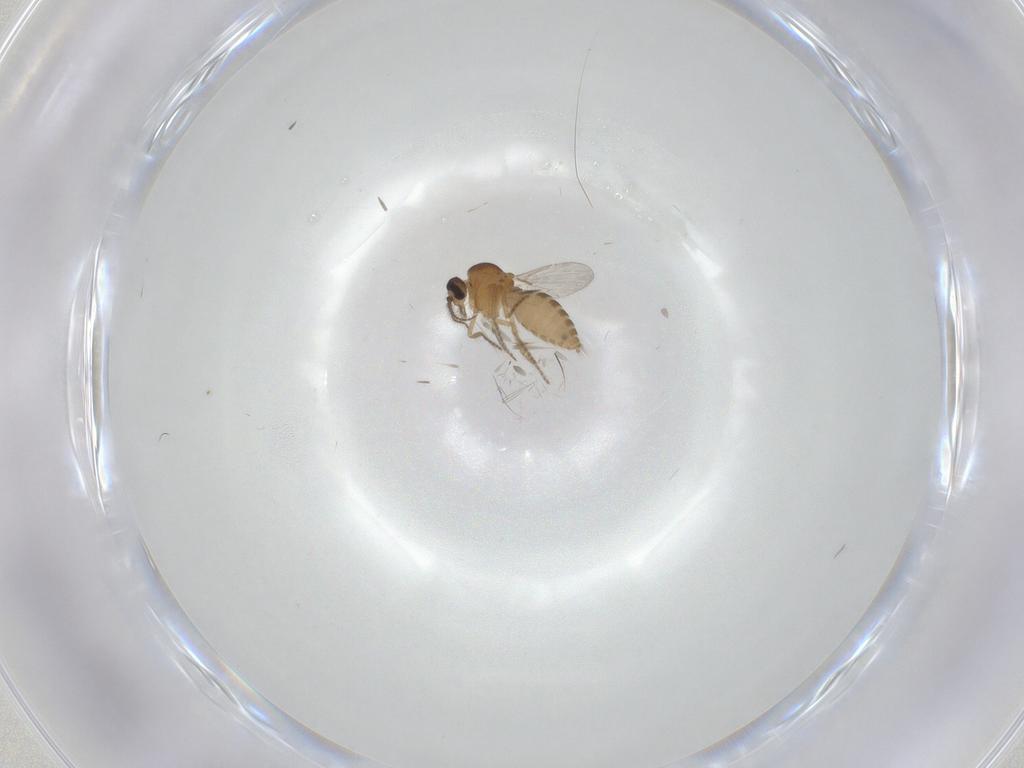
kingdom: Animalia
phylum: Arthropoda
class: Insecta
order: Diptera
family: Ceratopogonidae
